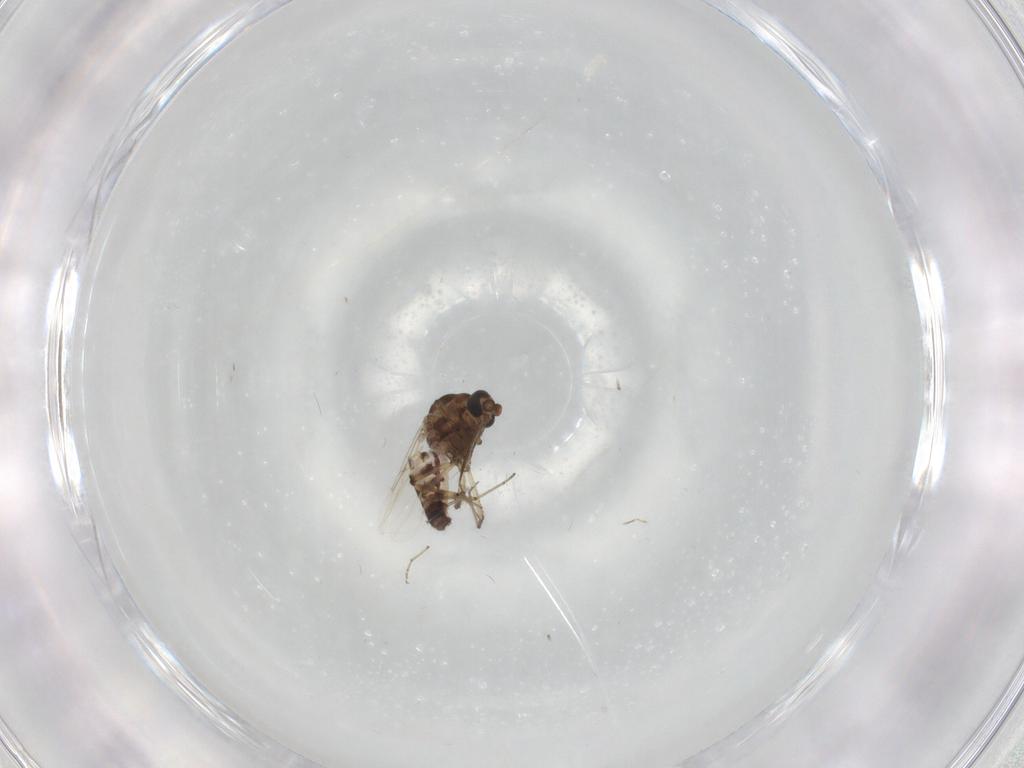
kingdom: Animalia
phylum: Arthropoda
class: Insecta
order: Diptera
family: Ceratopogonidae
